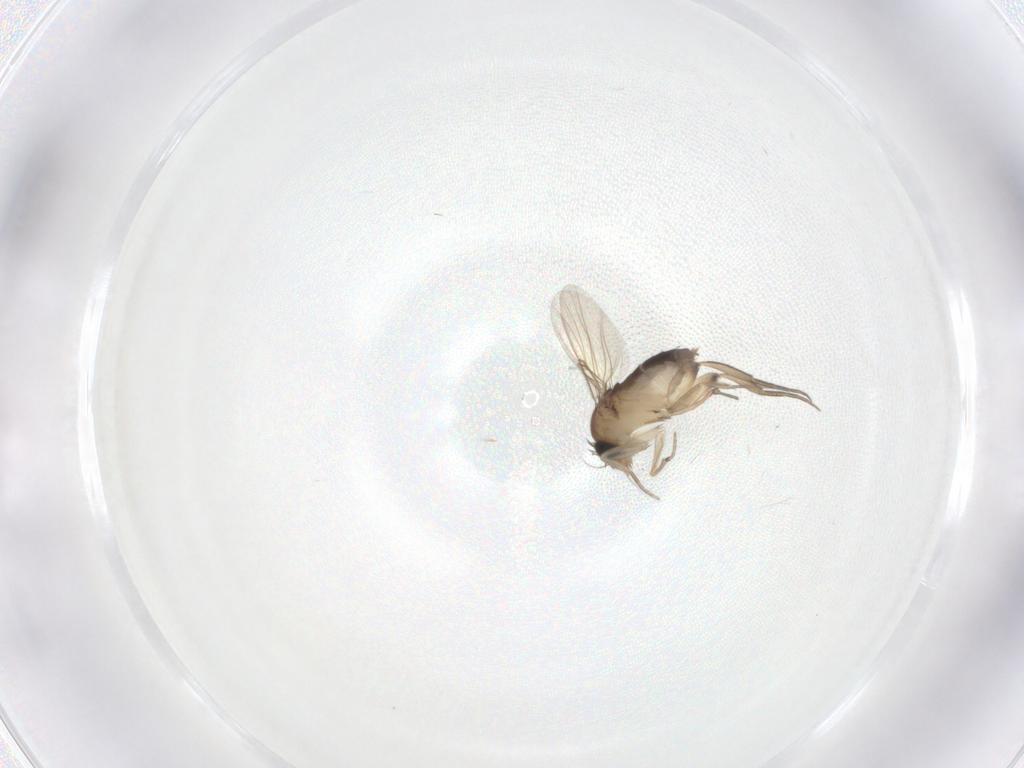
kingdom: Animalia
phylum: Arthropoda
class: Insecta
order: Diptera
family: Phoridae
